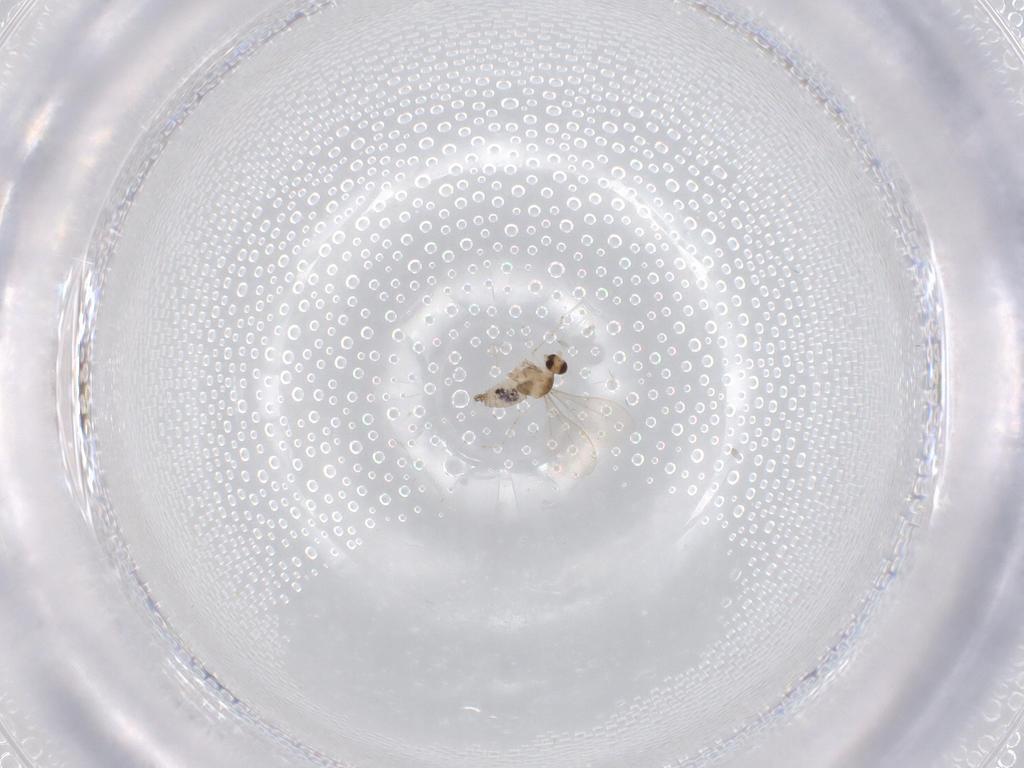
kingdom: Animalia
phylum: Arthropoda
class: Insecta
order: Diptera
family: Cecidomyiidae
